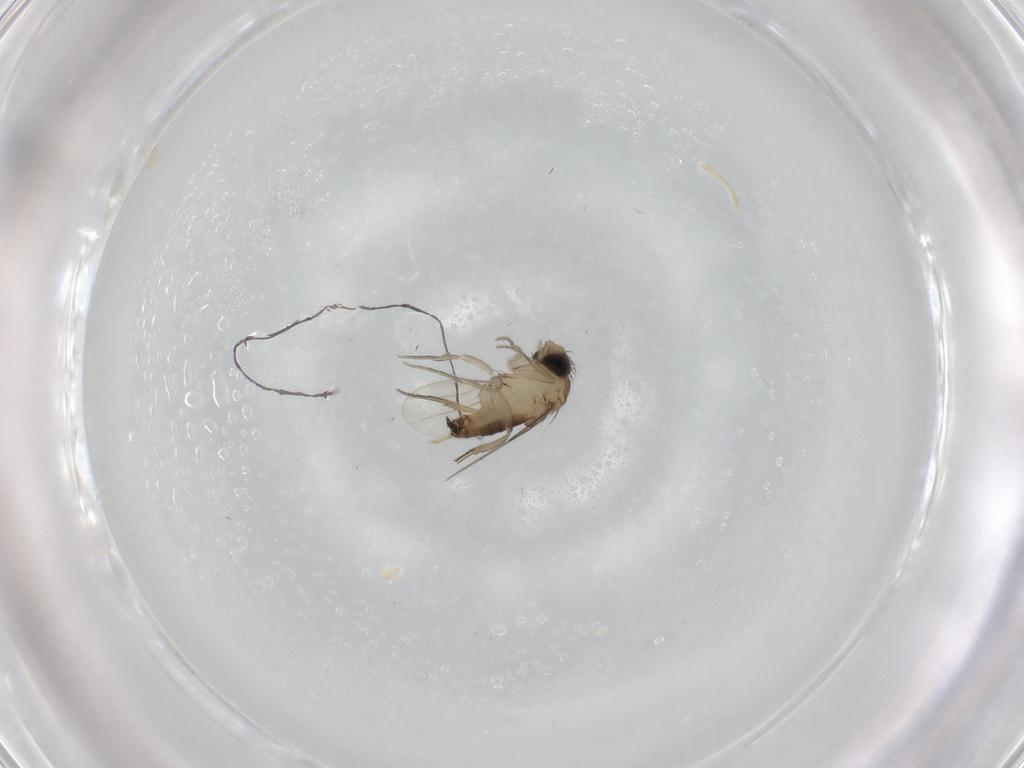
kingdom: Animalia
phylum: Arthropoda
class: Insecta
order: Diptera
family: Phoridae
